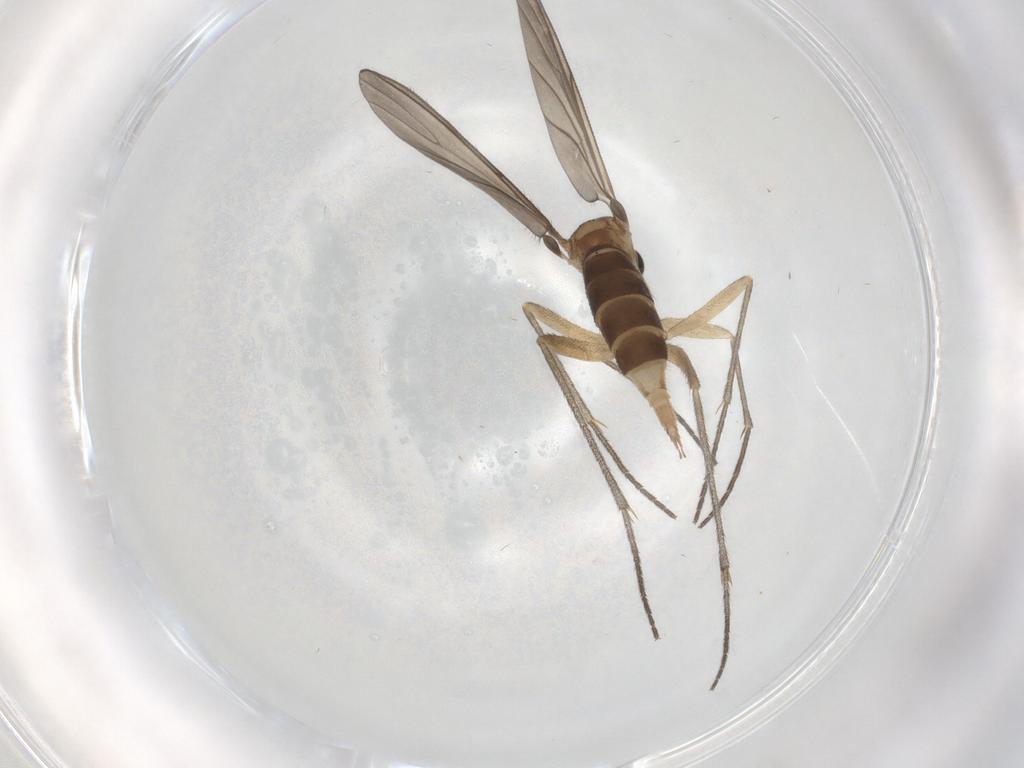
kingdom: Animalia
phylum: Arthropoda
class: Insecta
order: Diptera
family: Sciaridae
